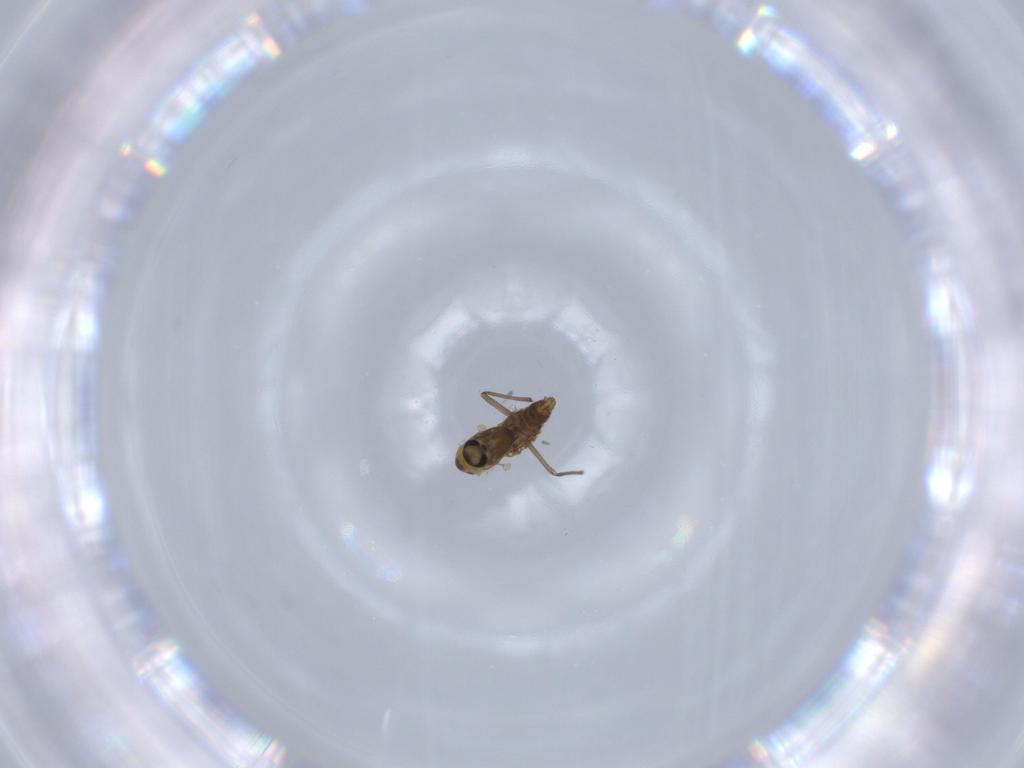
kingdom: Animalia
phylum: Arthropoda
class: Insecta
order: Diptera
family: Chironomidae
